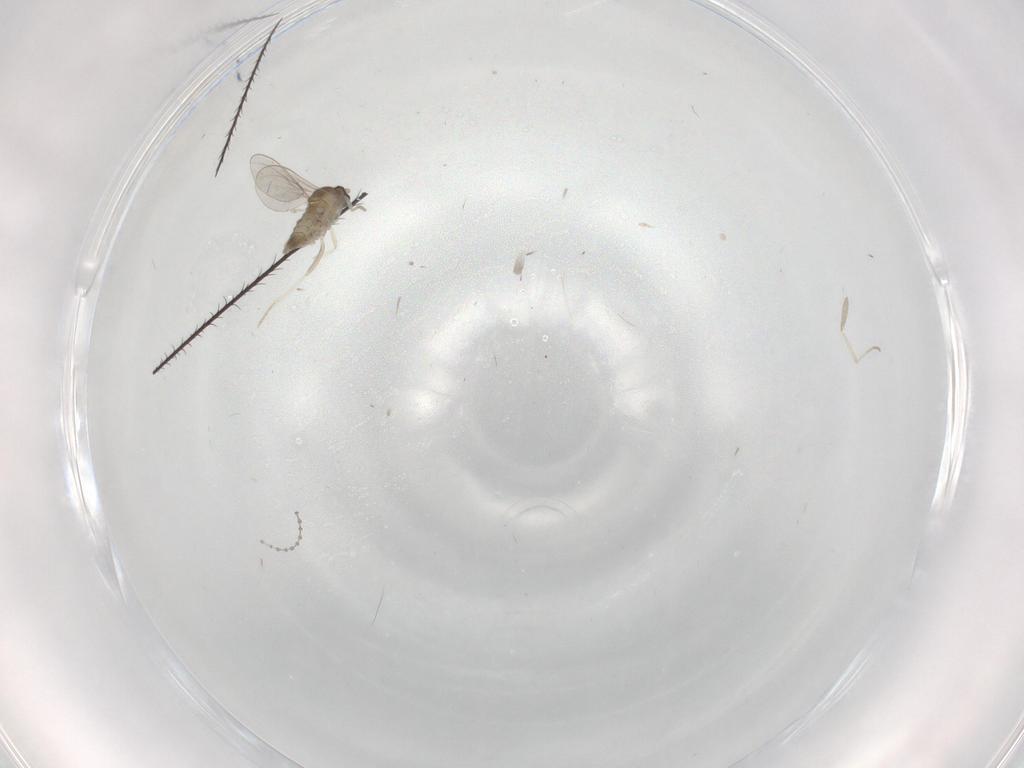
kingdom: Animalia
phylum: Arthropoda
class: Insecta
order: Diptera
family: Cecidomyiidae
